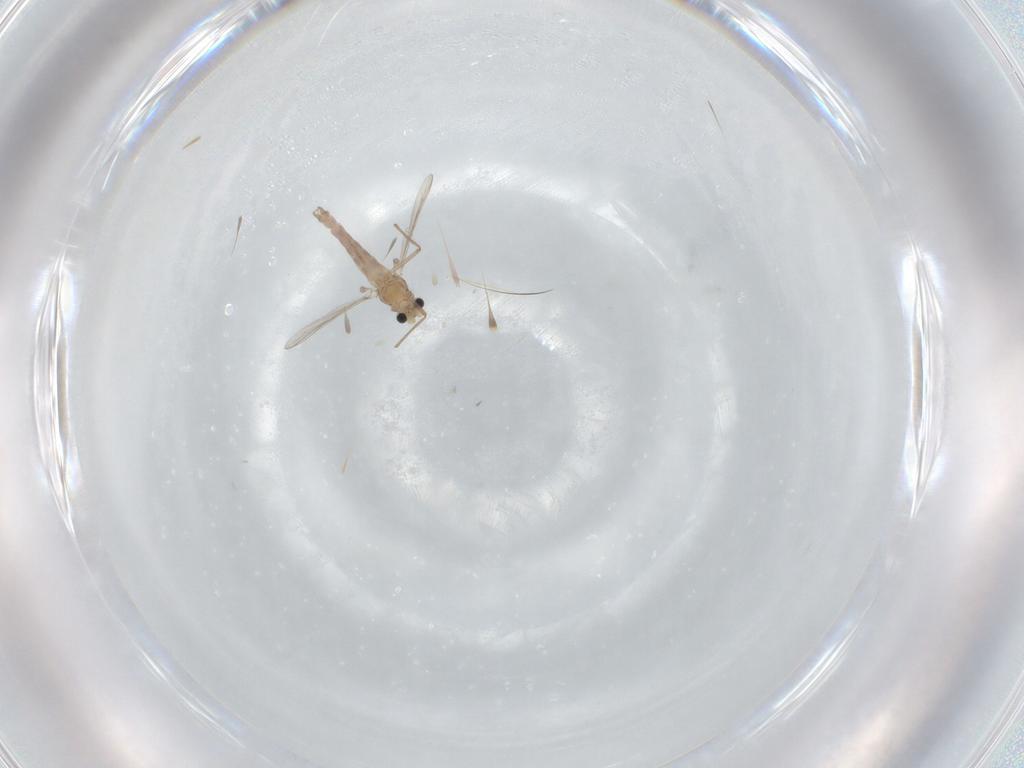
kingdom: Animalia
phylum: Arthropoda
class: Insecta
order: Diptera
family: Chironomidae
